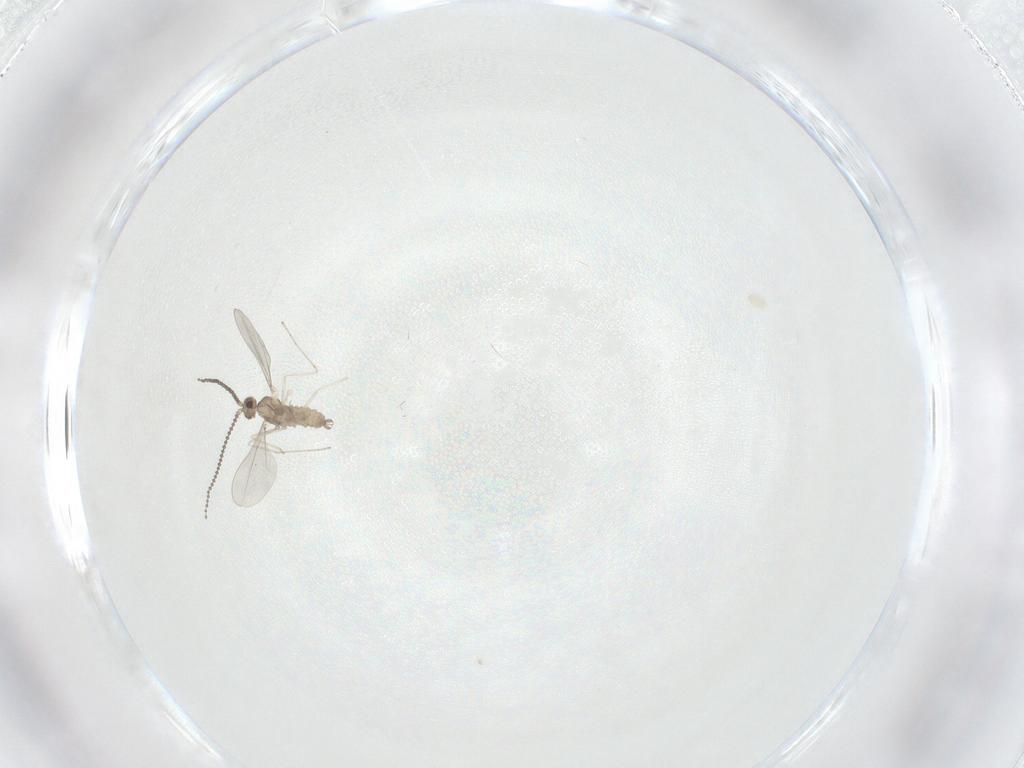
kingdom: Animalia
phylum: Arthropoda
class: Insecta
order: Diptera
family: Cecidomyiidae
